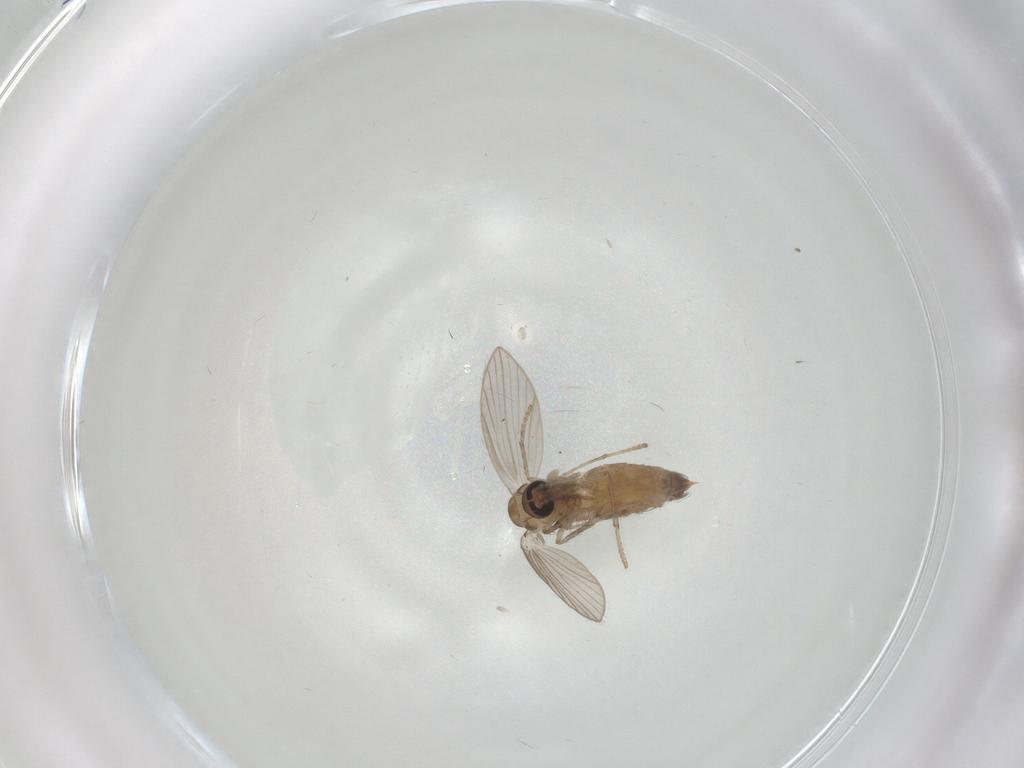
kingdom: Animalia
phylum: Arthropoda
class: Insecta
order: Diptera
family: Psychodidae
